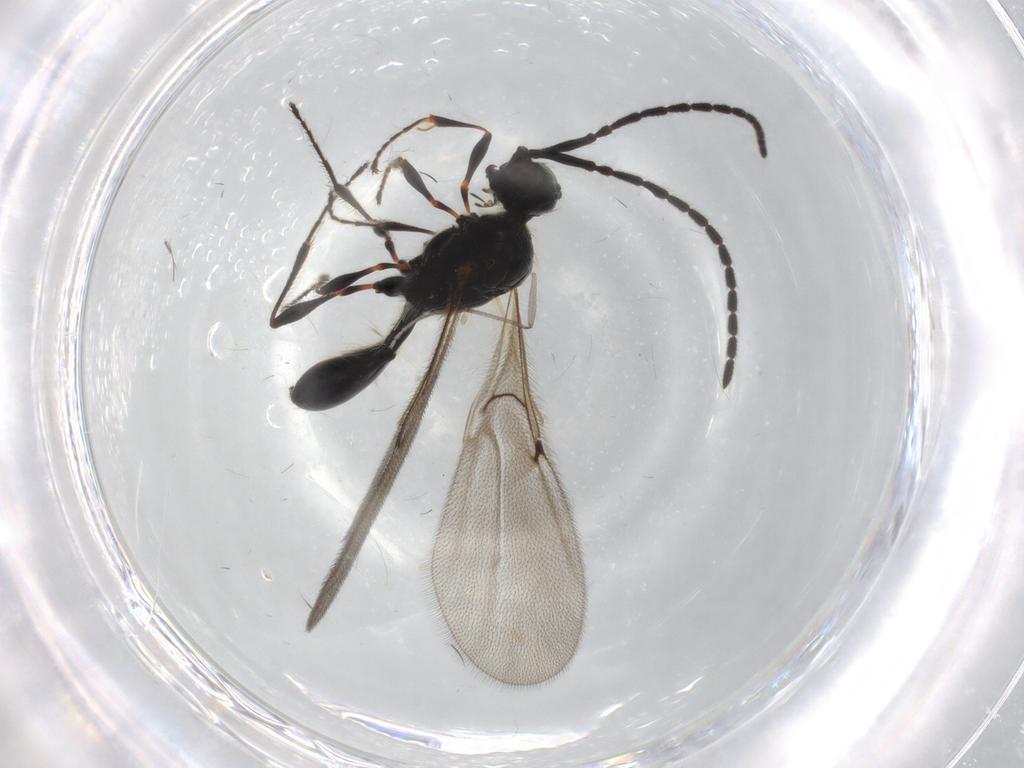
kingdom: Animalia
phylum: Arthropoda
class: Insecta
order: Hymenoptera
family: Diapriidae
